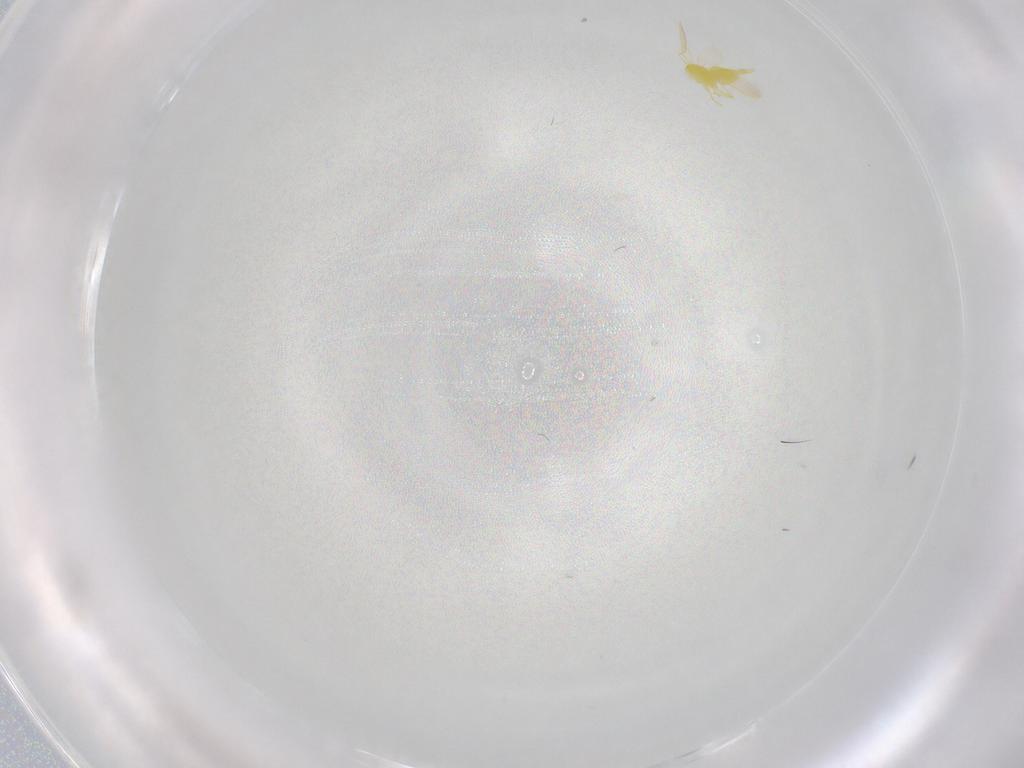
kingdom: Animalia
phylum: Arthropoda
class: Insecta
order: Hemiptera
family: Aleyrodidae
